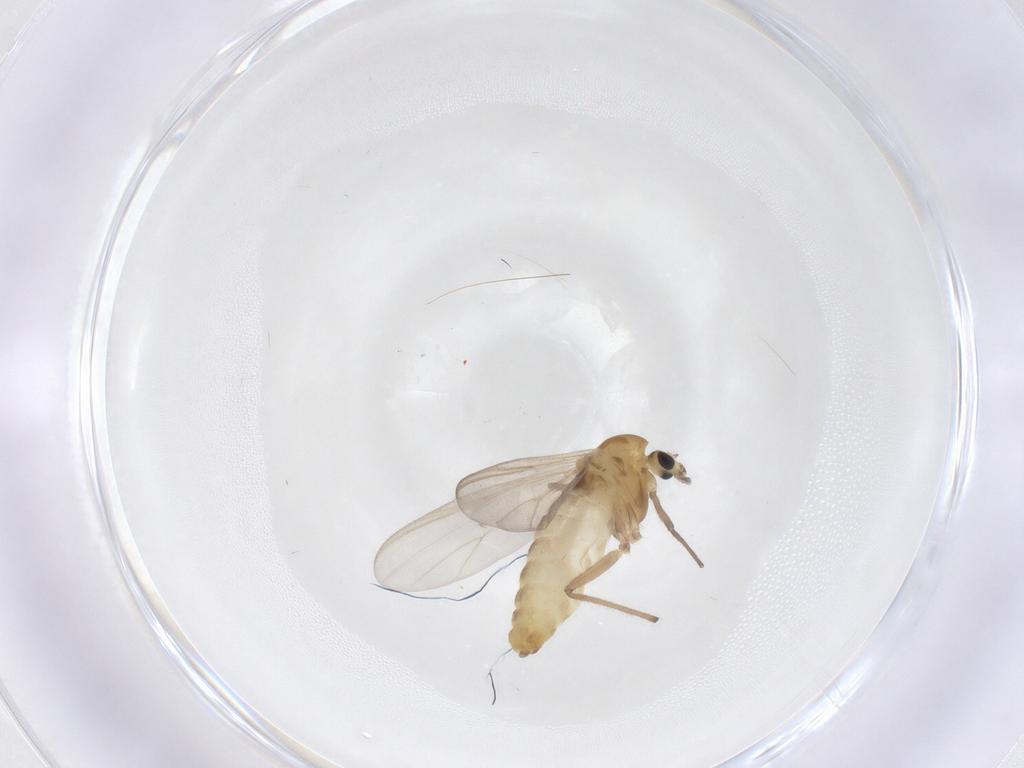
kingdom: Animalia
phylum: Arthropoda
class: Insecta
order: Diptera
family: Chironomidae
